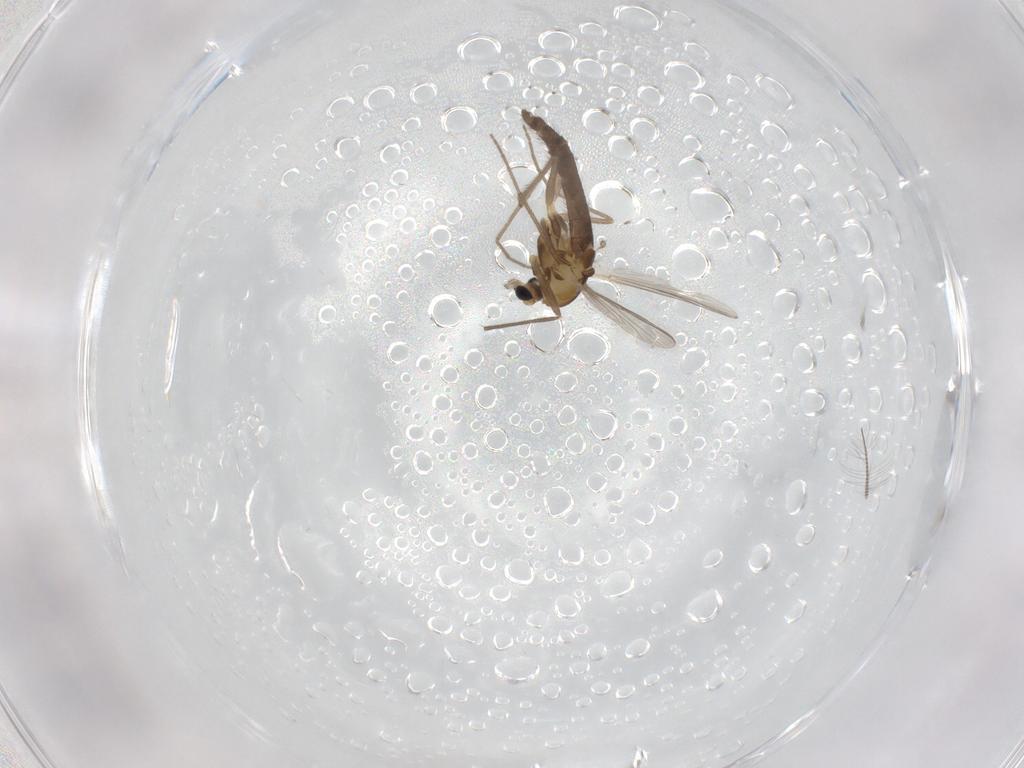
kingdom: Animalia
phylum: Arthropoda
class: Insecta
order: Diptera
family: Chironomidae
